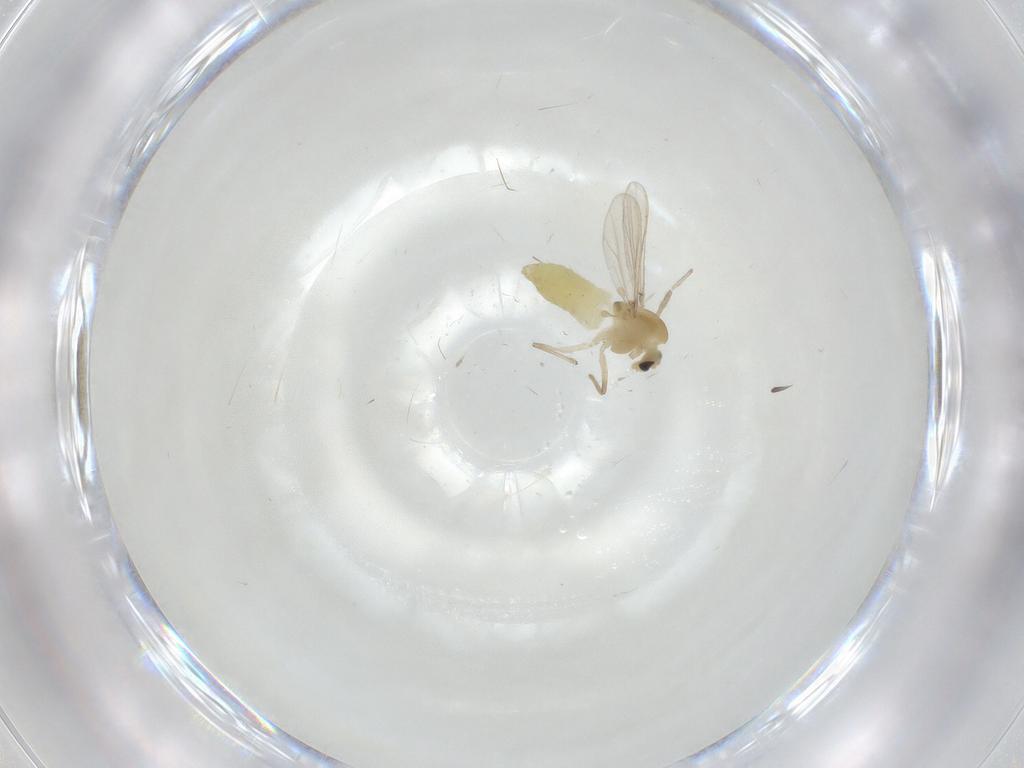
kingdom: Animalia
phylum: Arthropoda
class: Insecta
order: Diptera
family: Chironomidae
